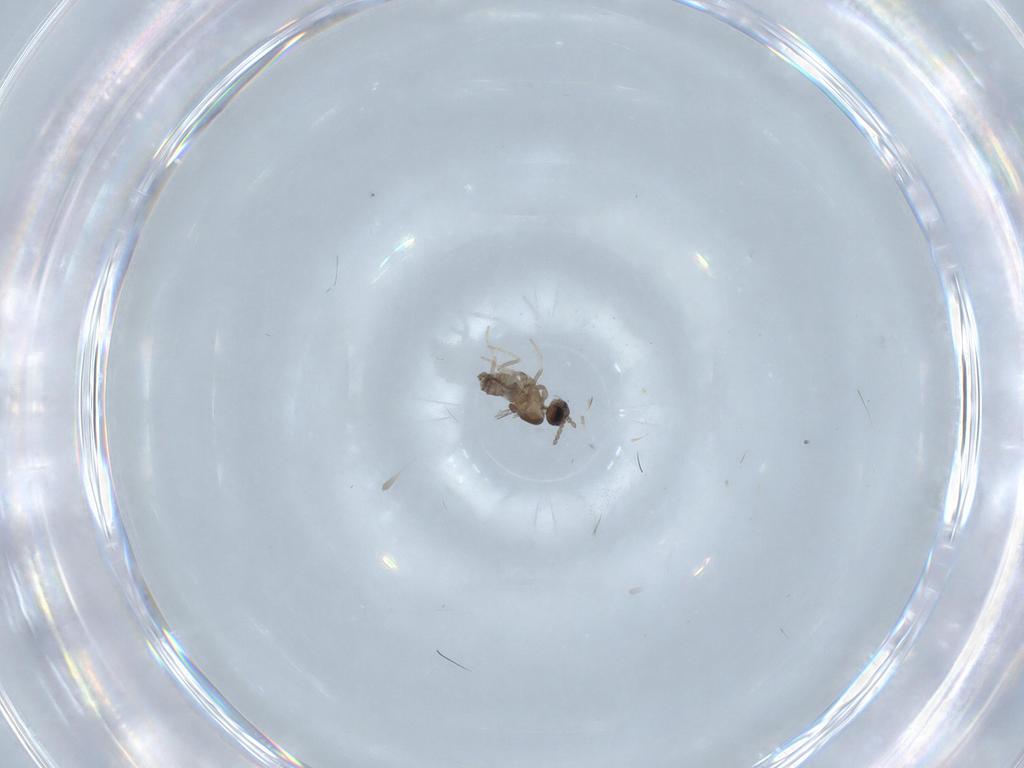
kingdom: Animalia
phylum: Arthropoda
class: Insecta
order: Diptera
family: Cecidomyiidae
